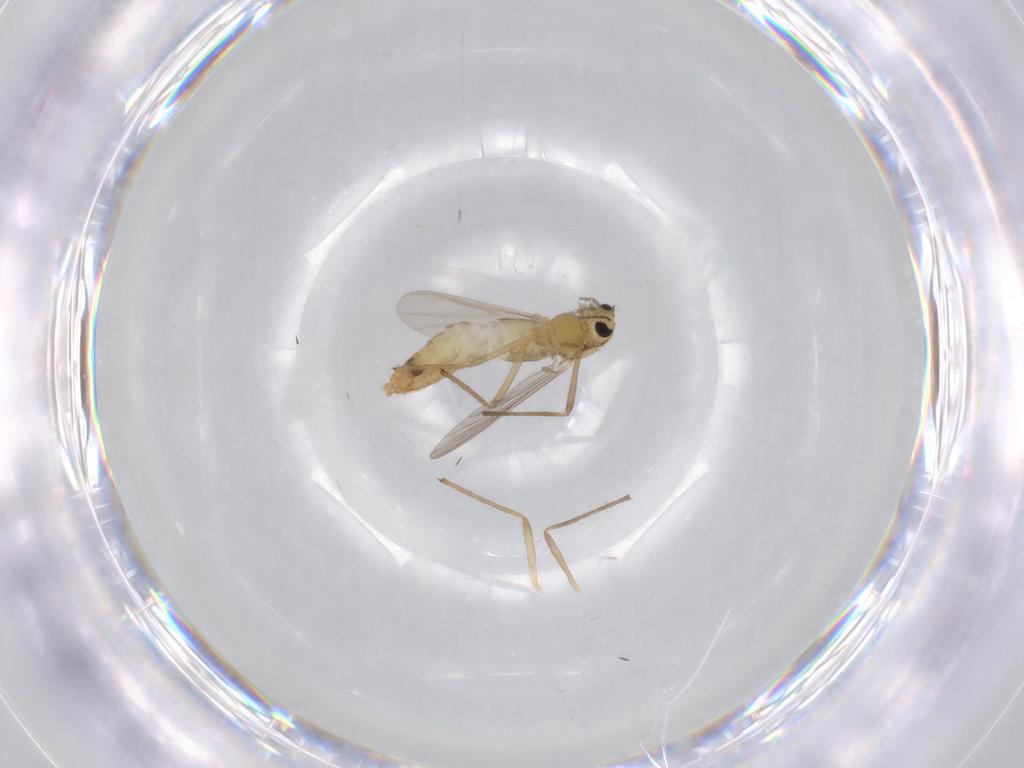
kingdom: Animalia
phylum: Arthropoda
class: Insecta
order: Diptera
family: Chironomidae
